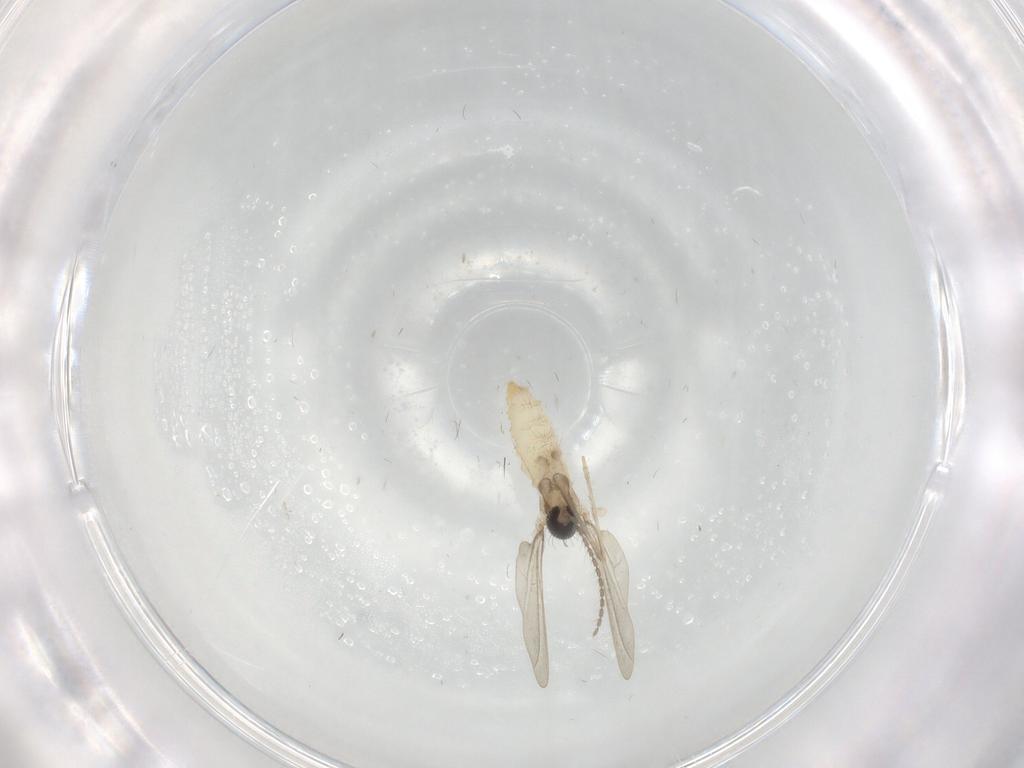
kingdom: Animalia
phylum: Arthropoda
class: Insecta
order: Diptera
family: Cecidomyiidae
